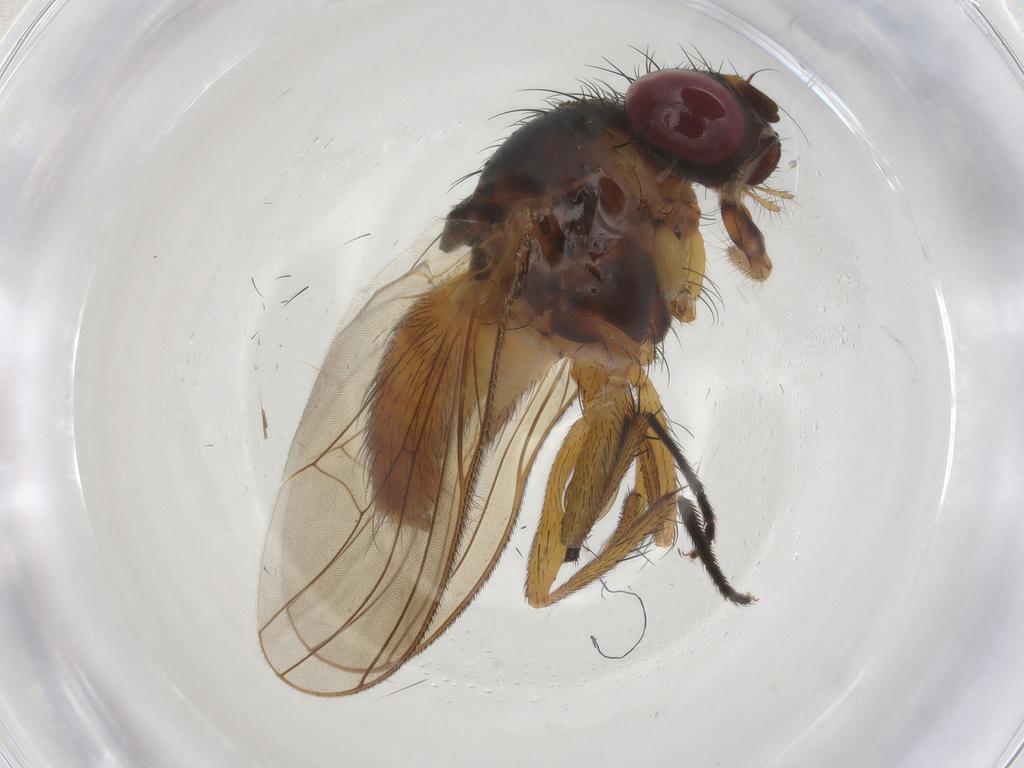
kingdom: Animalia
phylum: Arthropoda
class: Insecta
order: Diptera
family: Fannia
